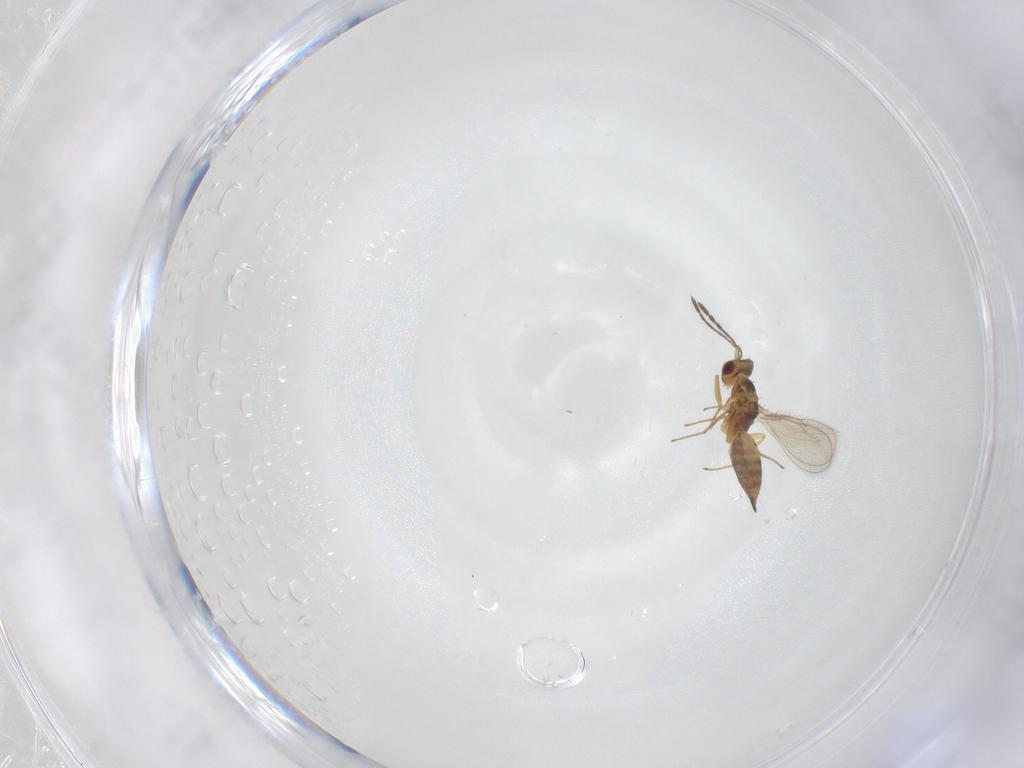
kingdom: Animalia
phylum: Arthropoda
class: Insecta
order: Hymenoptera
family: Eulophidae
